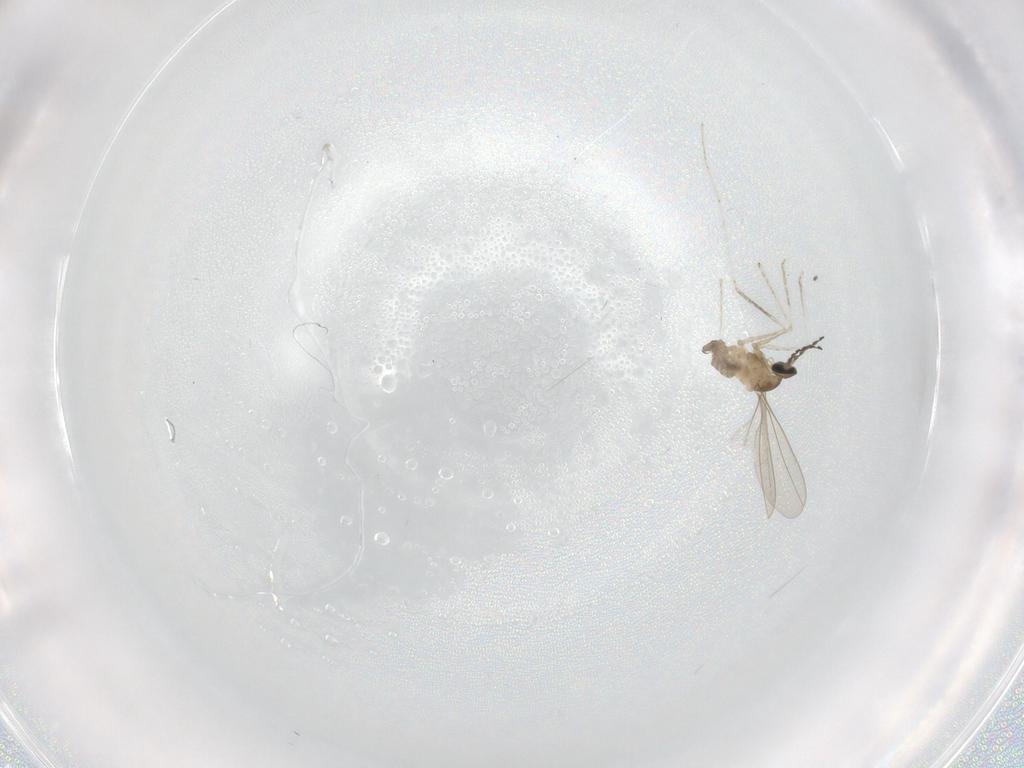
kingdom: Animalia
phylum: Arthropoda
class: Insecta
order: Diptera
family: Cecidomyiidae
